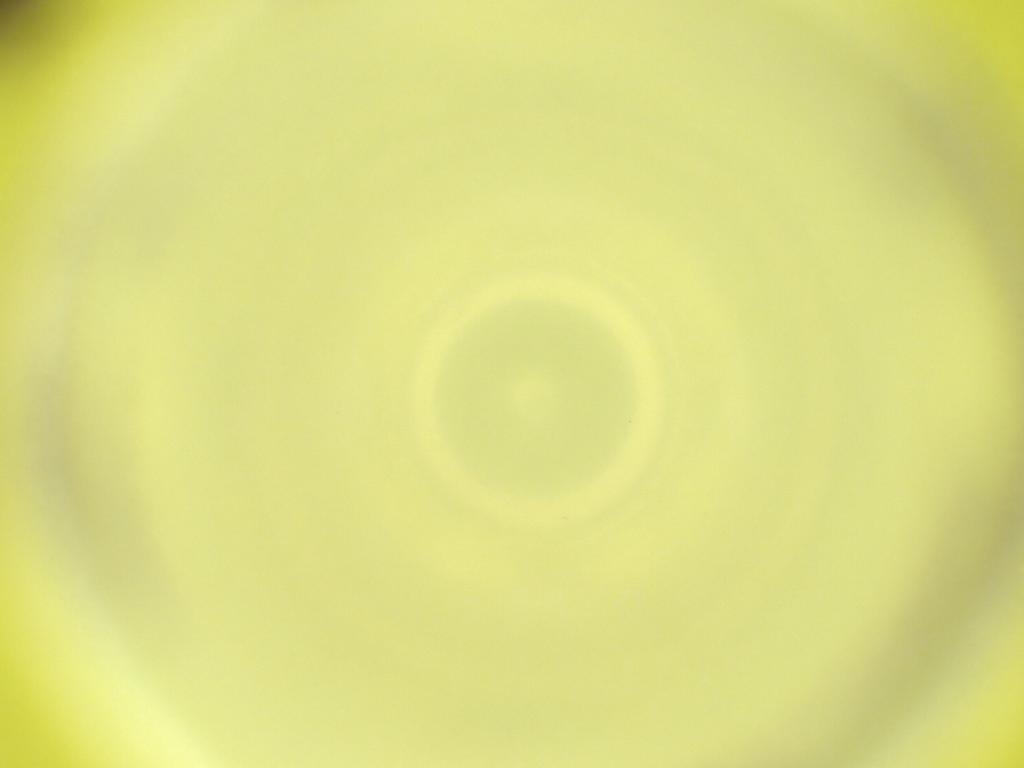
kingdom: Animalia
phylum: Arthropoda
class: Insecta
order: Diptera
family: Cecidomyiidae
